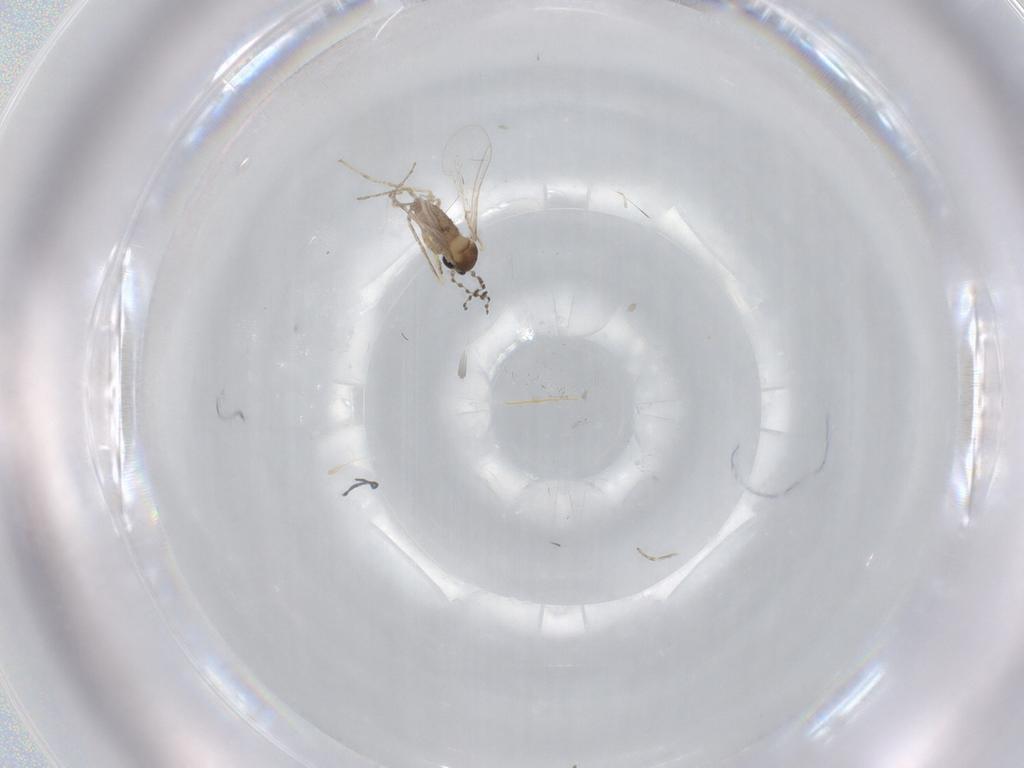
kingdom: Animalia
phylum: Arthropoda
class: Insecta
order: Diptera
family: Cecidomyiidae
